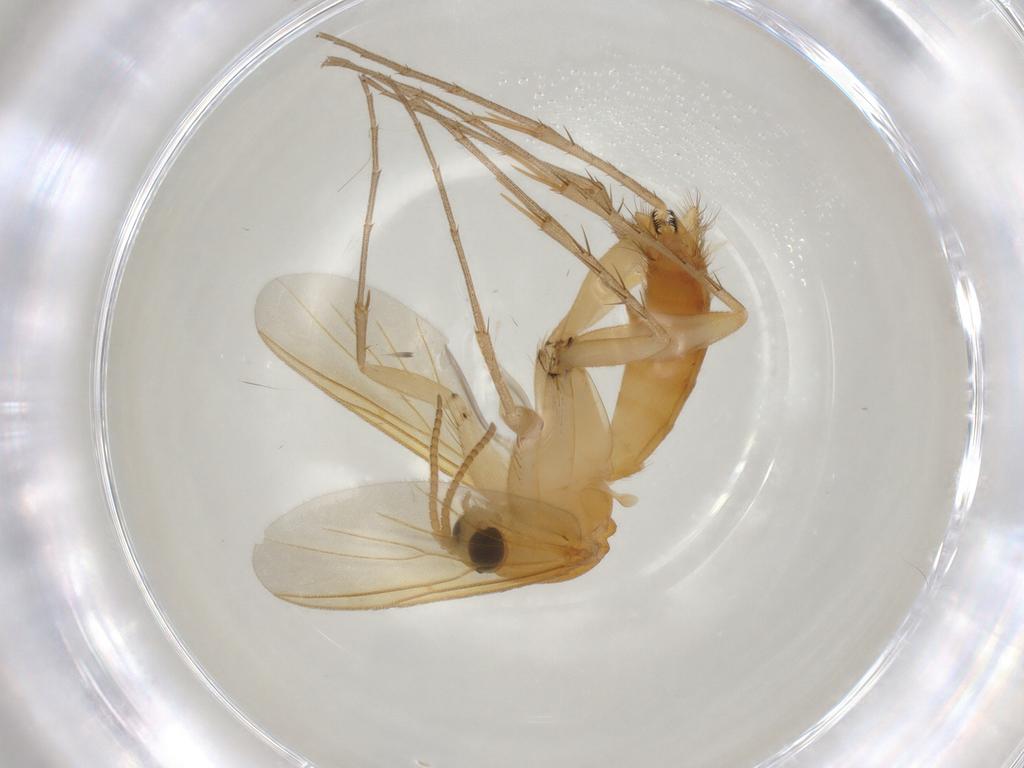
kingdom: Animalia
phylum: Arthropoda
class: Insecta
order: Diptera
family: Mycetophilidae
